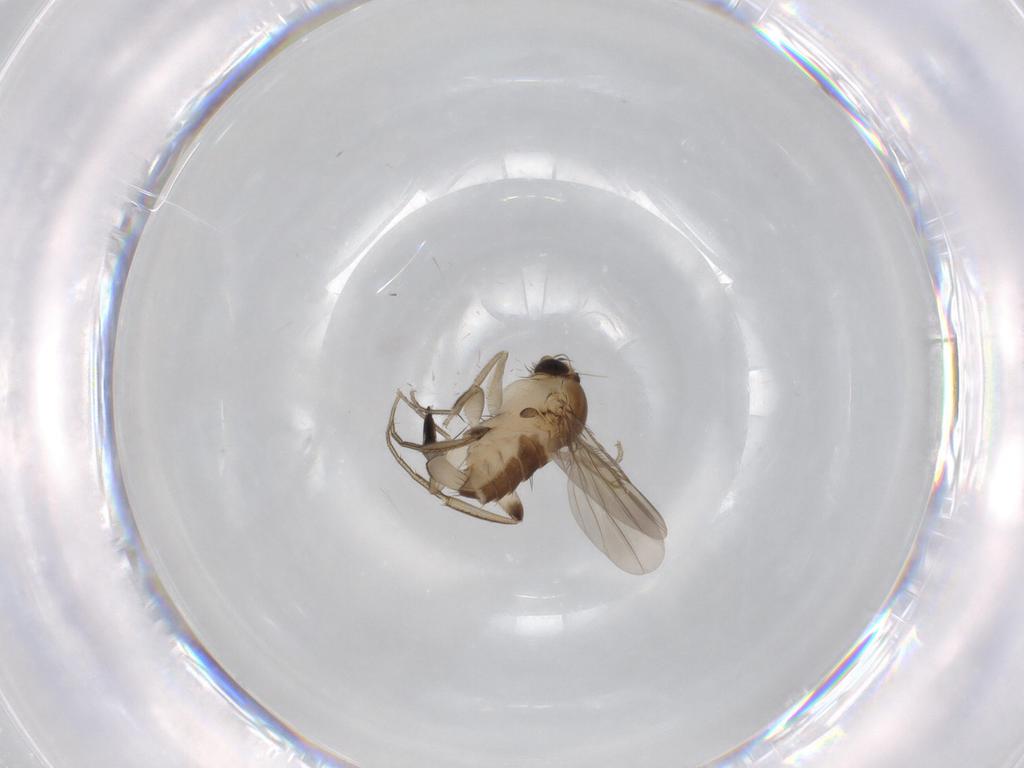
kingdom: Animalia
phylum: Arthropoda
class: Insecta
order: Diptera
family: Phoridae
